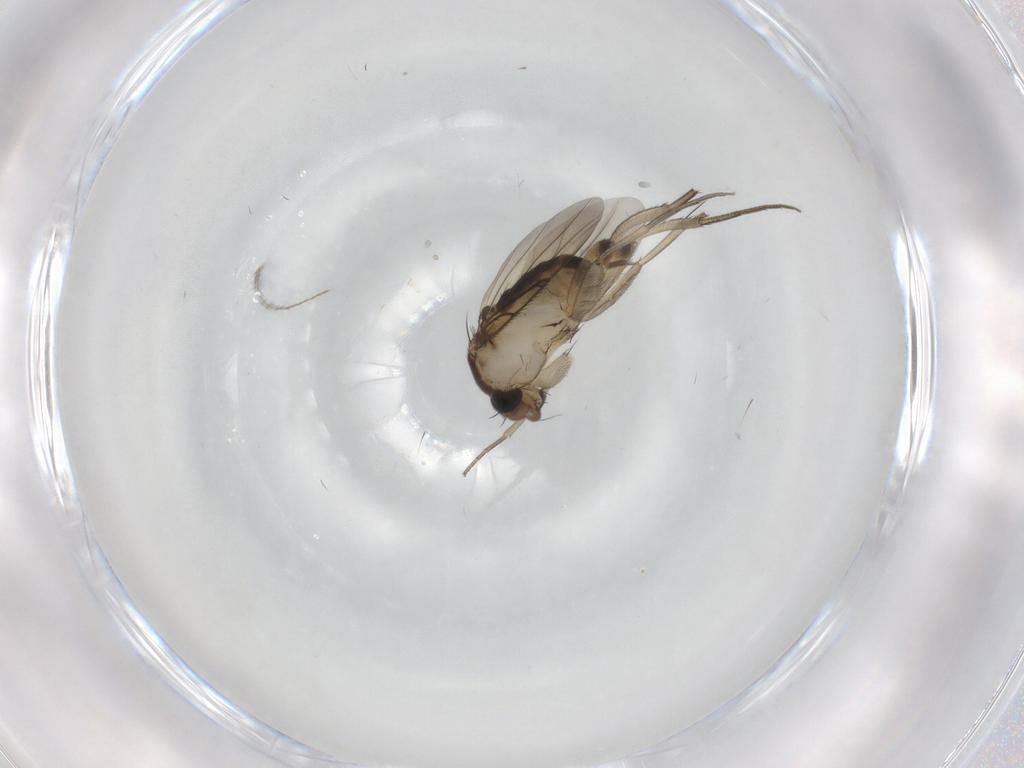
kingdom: Animalia
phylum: Arthropoda
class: Insecta
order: Diptera
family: Phoridae
